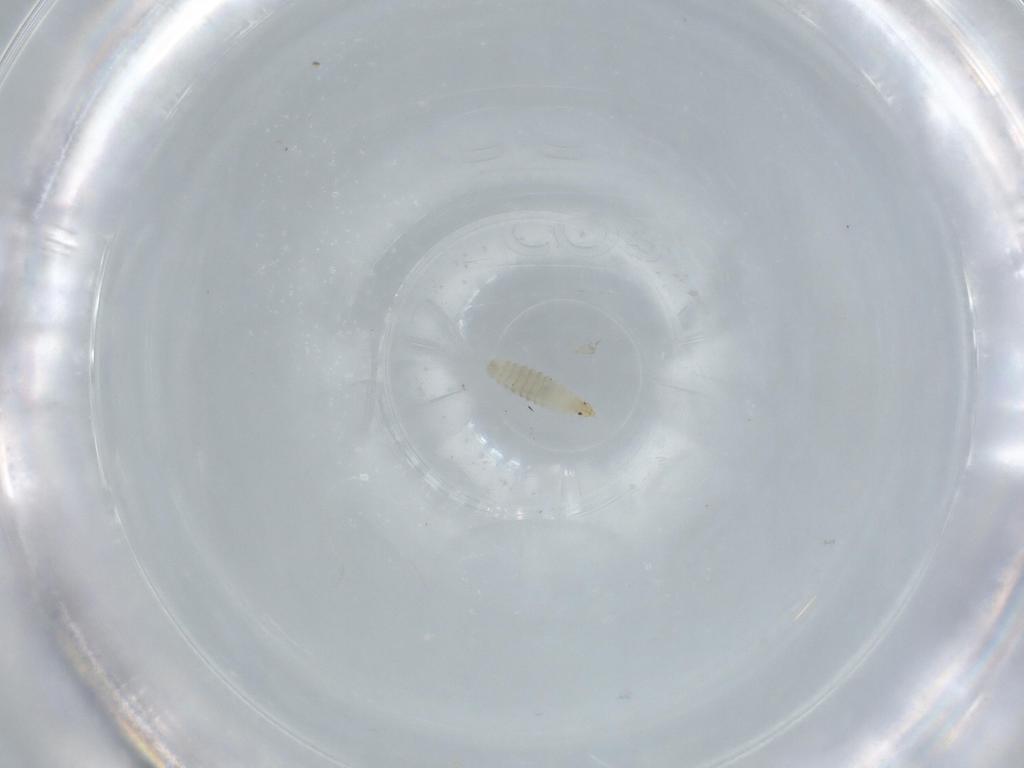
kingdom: Animalia
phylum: Arthropoda
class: Insecta
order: Diptera
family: Milichiidae
